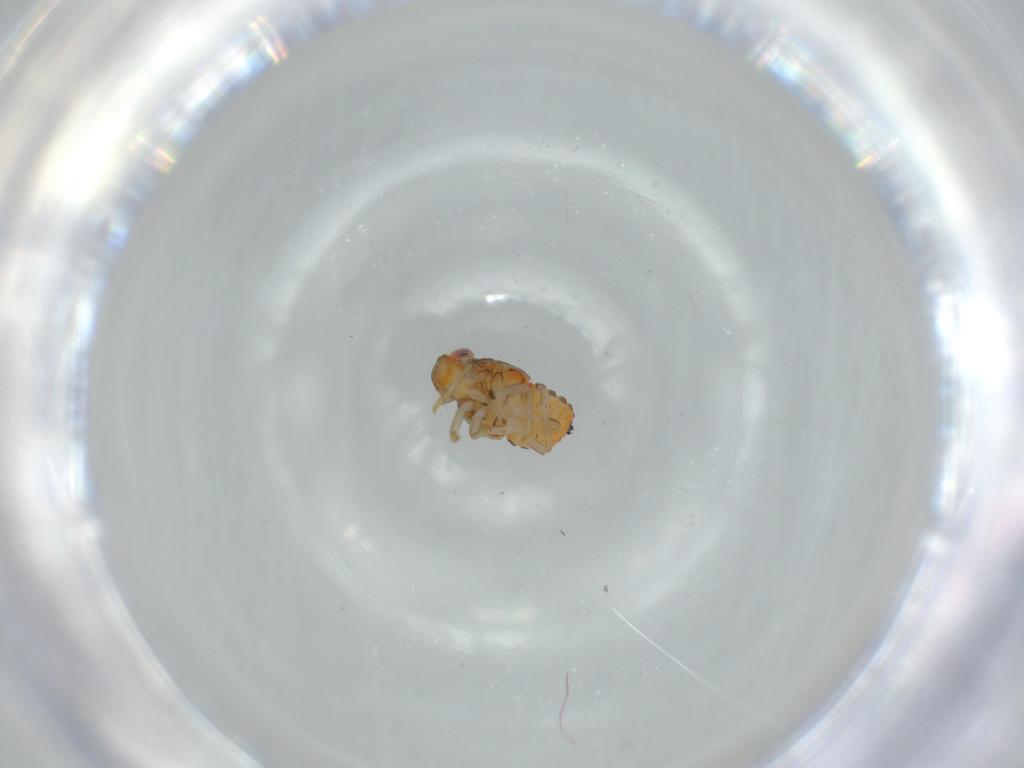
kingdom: Animalia
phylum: Arthropoda
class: Insecta
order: Hemiptera
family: Issidae
